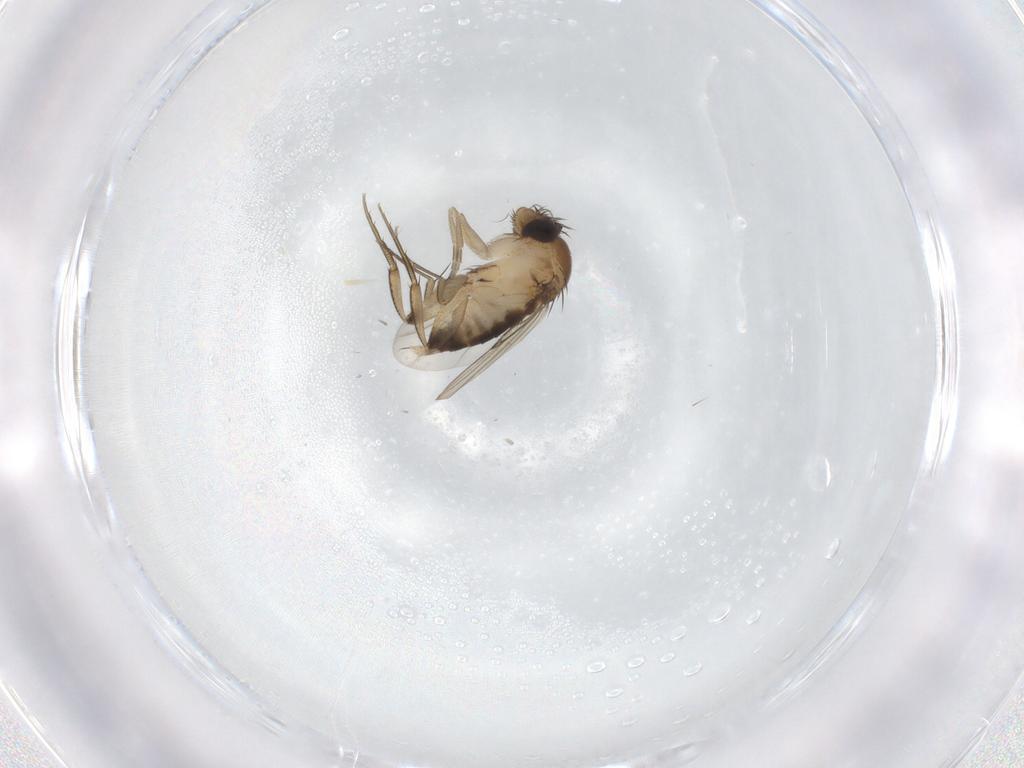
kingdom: Animalia
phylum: Arthropoda
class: Insecta
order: Diptera
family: Phoridae
